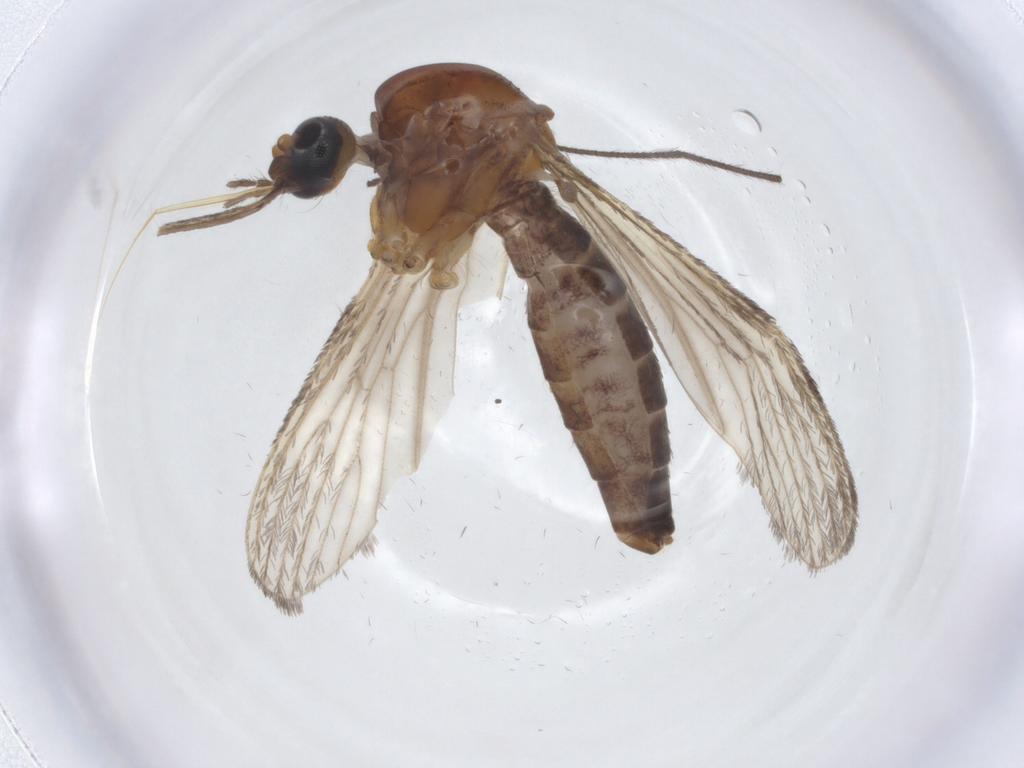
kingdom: Animalia
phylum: Arthropoda
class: Insecta
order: Diptera
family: Chironomidae
